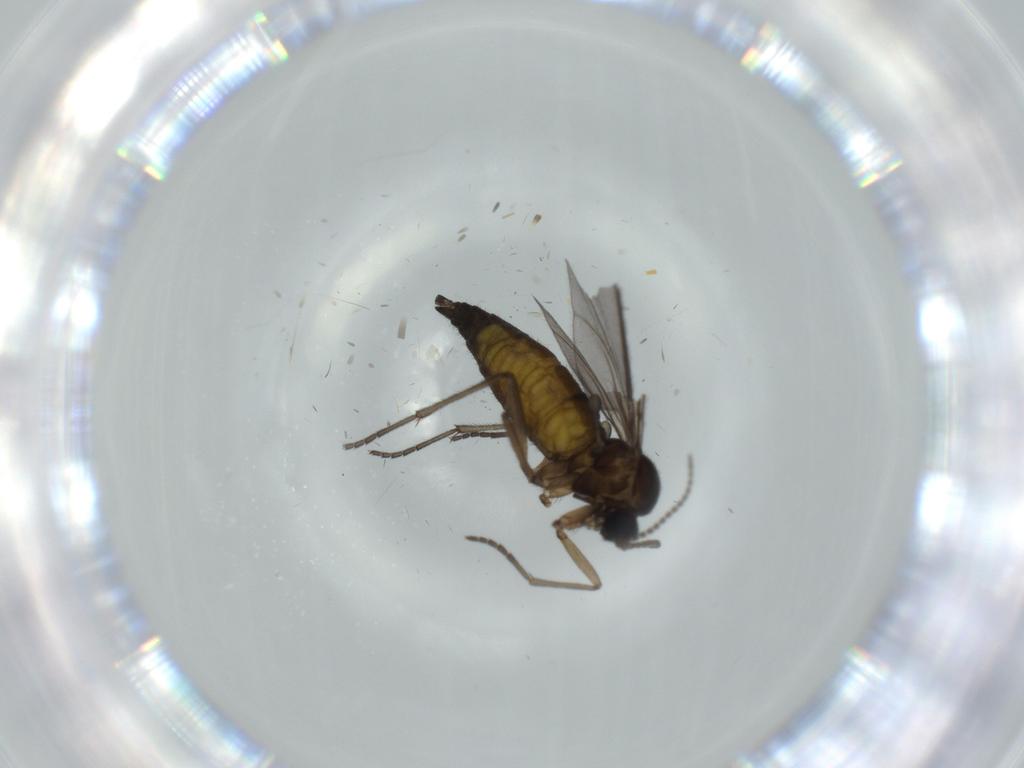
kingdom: Animalia
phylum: Arthropoda
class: Insecta
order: Diptera
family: Sciaridae
